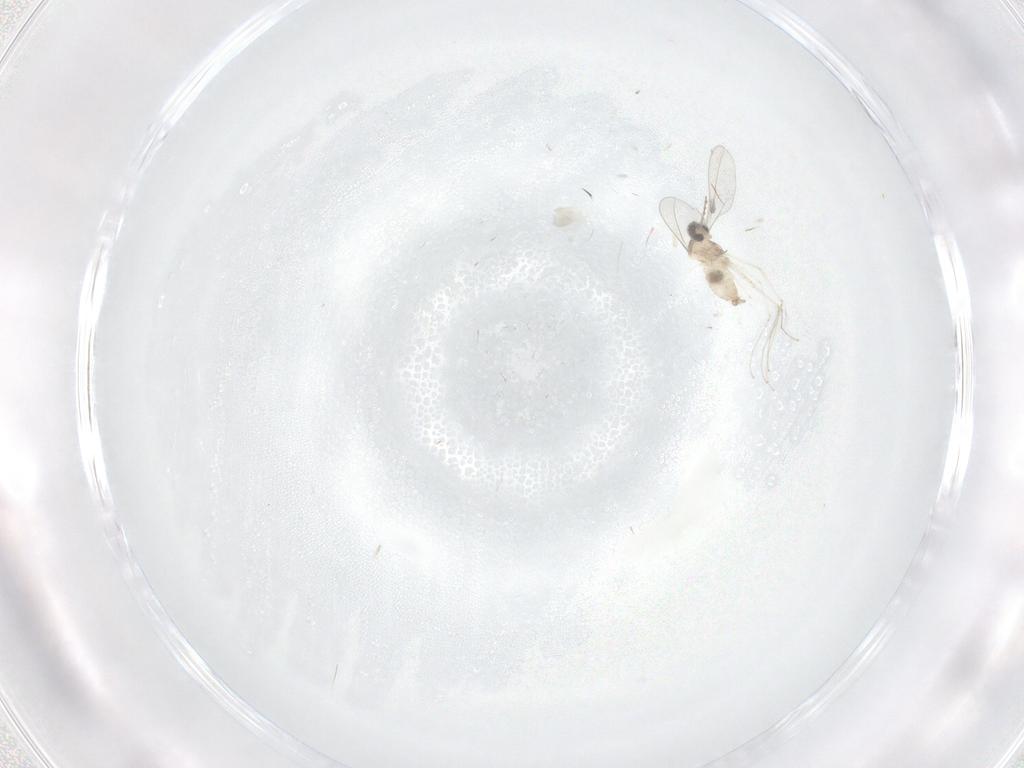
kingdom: Animalia
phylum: Arthropoda
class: Insecta
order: Diptera
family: Cecidomyiidae
